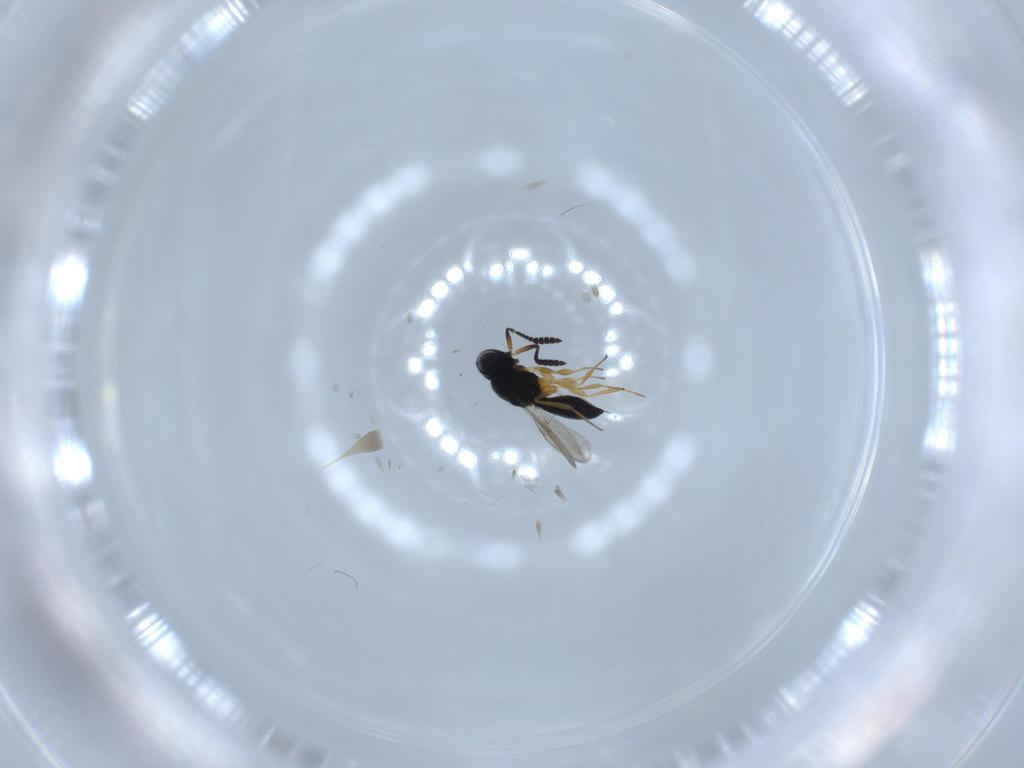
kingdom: Animalia
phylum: Arthropoda
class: Insecta
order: Hymenoptera
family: Scelionidae
